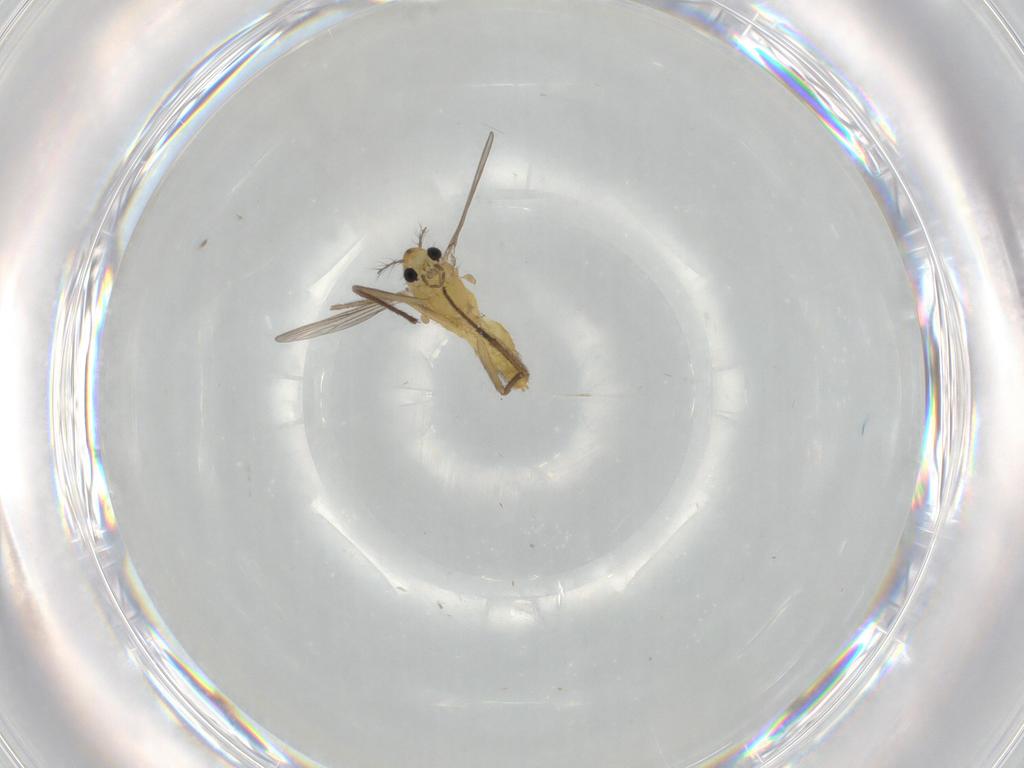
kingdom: Animalia
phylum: Arthropoda
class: Insecta
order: Diptera
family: Chironomidae
